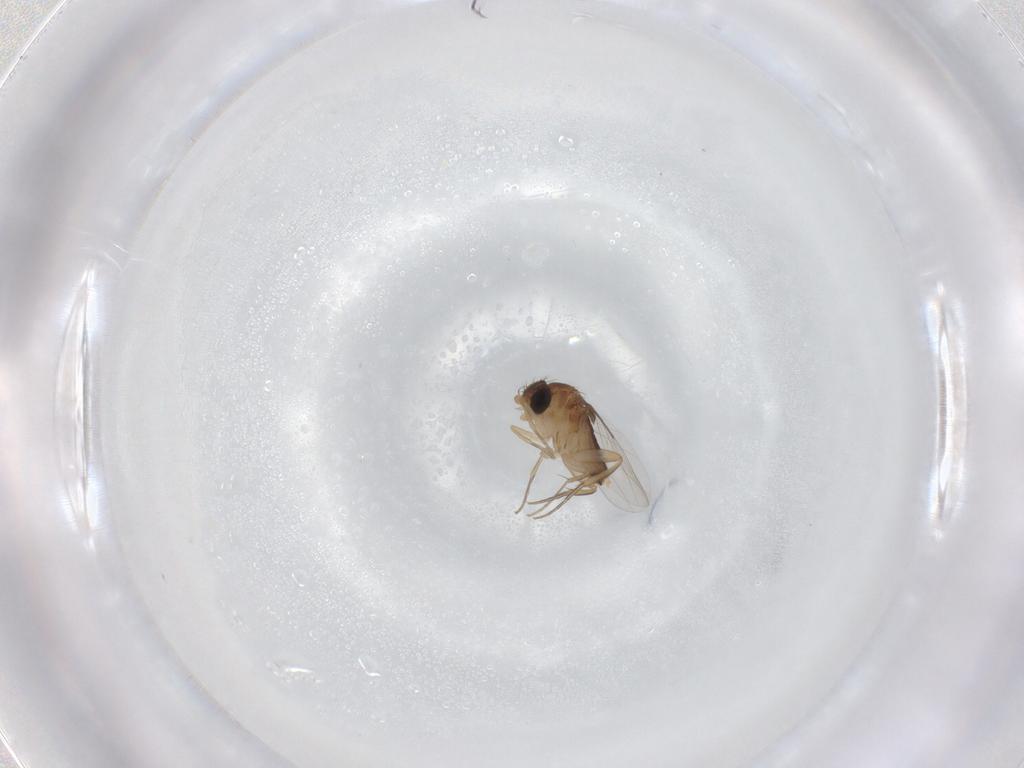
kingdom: Animalia
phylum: Arthropoda
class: Insecta
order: Diptera
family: Phoridae
